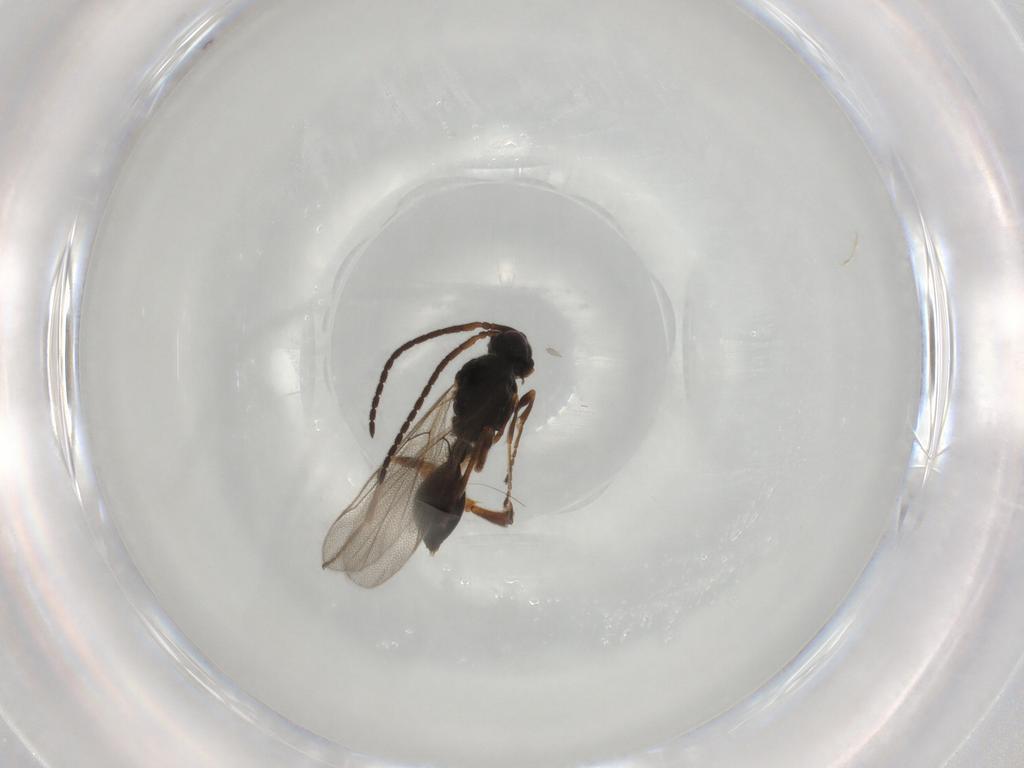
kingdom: Animalia
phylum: Arthropoda
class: Insecta
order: Hymenoptera
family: Ichneumonidae
